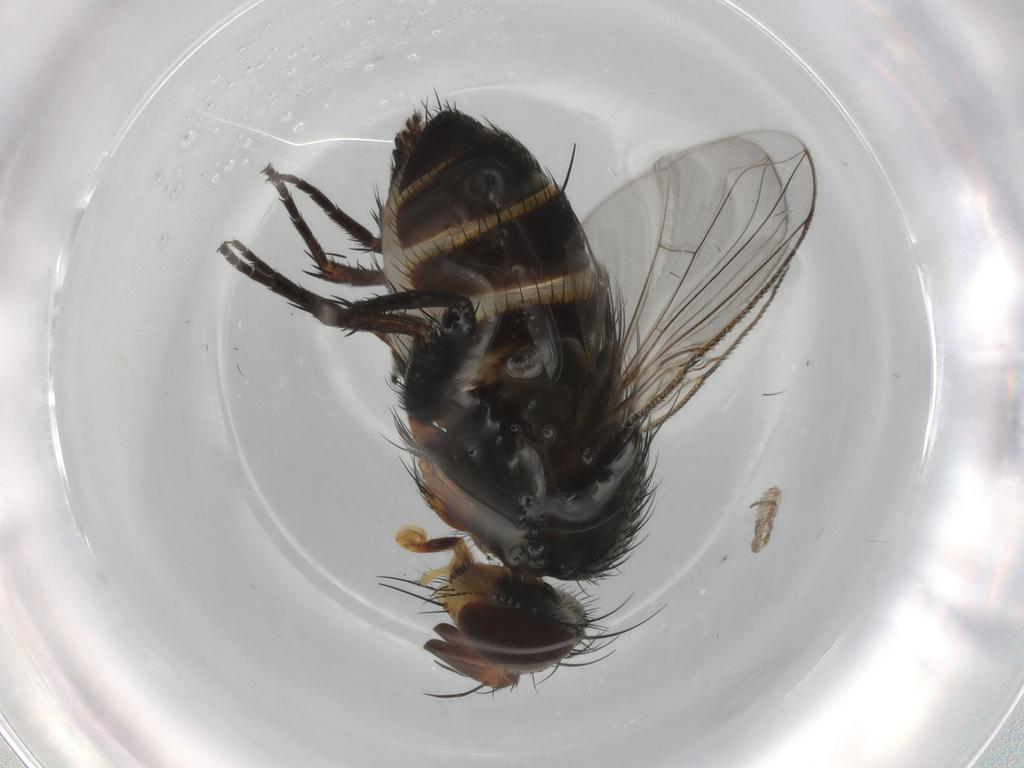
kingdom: Animalia
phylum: Arthropoda
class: Insecta
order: Diptera
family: Tachinidae
